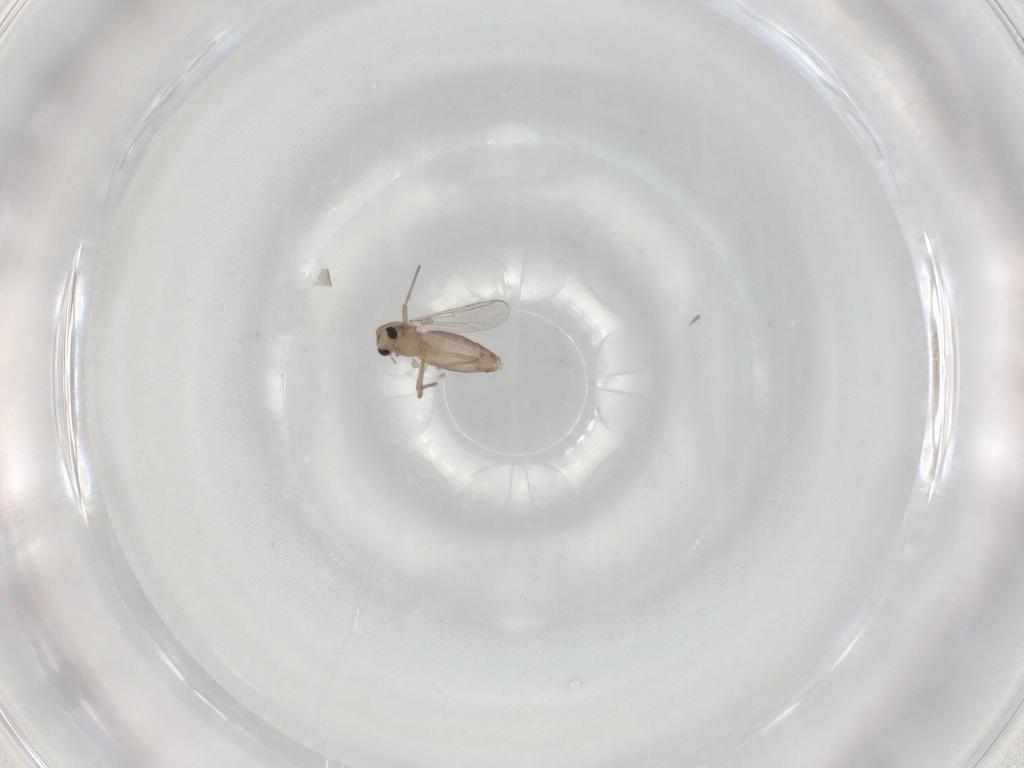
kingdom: Animalia
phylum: Arthropoda
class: Insecta
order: Diptera
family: Chironomidae
